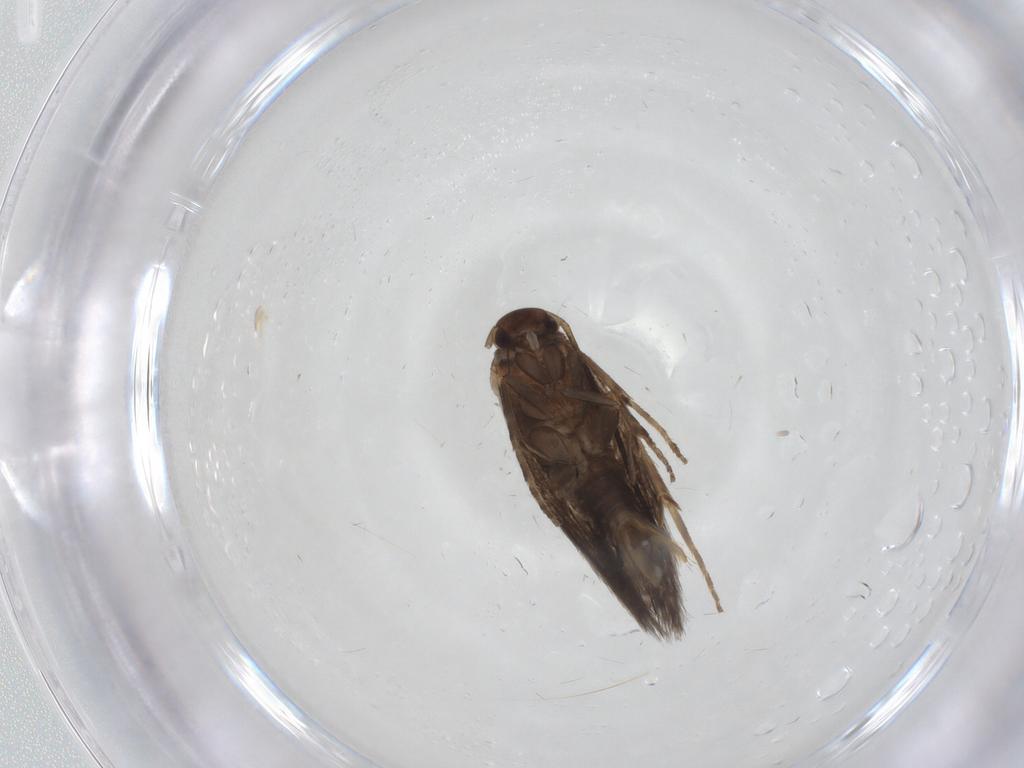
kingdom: Animalia
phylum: Arthropoda
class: Insecta
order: Lepidoptera
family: Elachistidae
